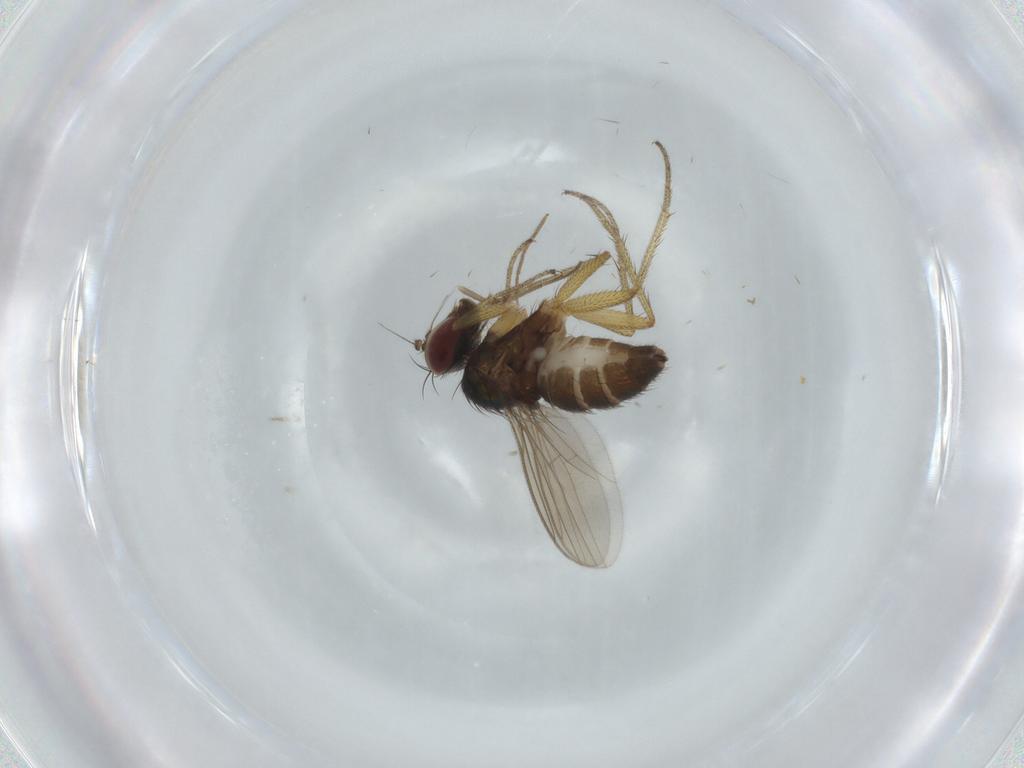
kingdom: Animalia
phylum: Arthropoda
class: Insecta
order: Diptera
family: Chironomidae
